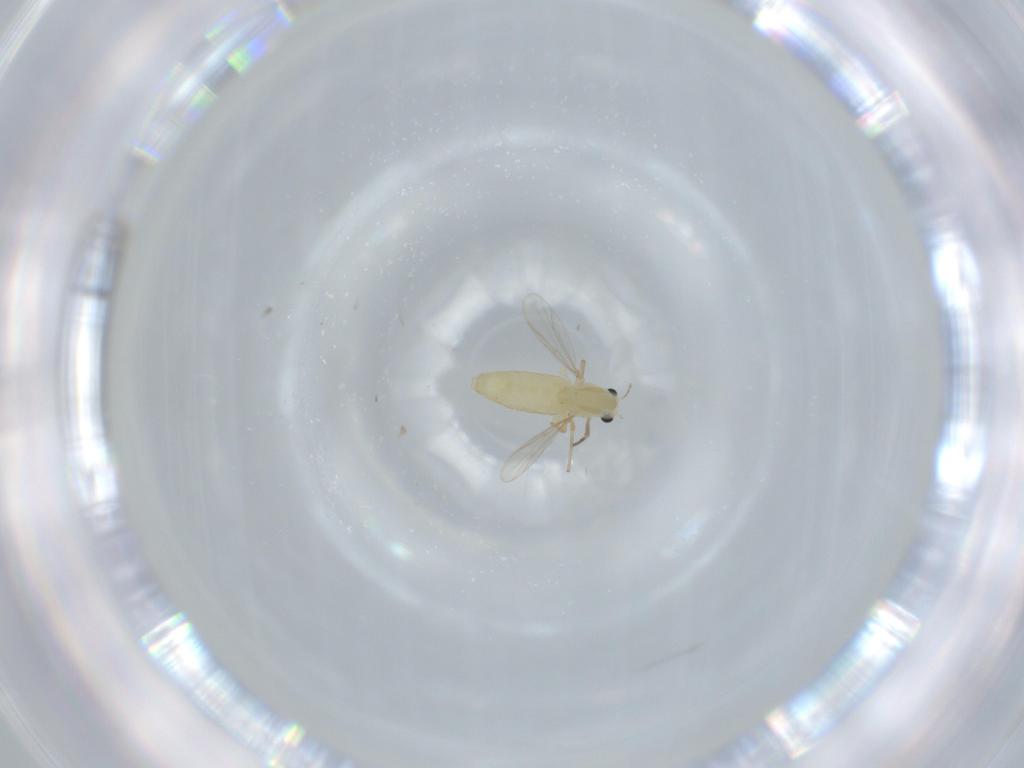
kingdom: Animalia
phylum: Arthropoda
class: Insecta
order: Diptera
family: Chironomidae
